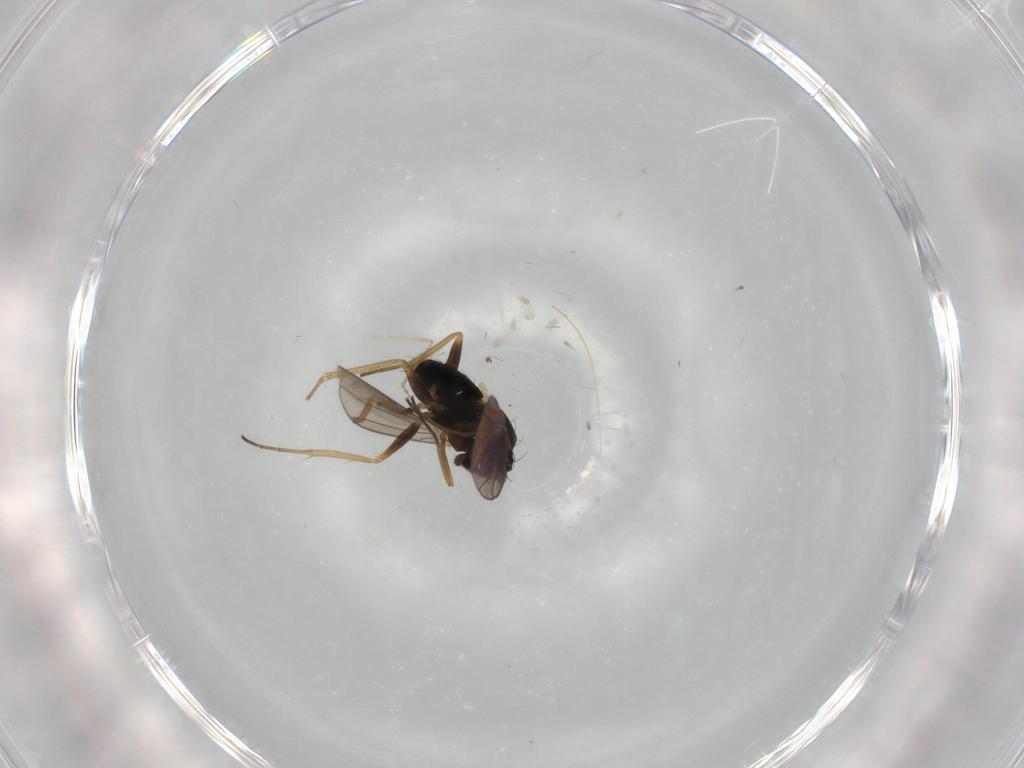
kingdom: Animalia
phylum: Arthropoda
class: Insecta
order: Diptera
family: Dolichopodidae
